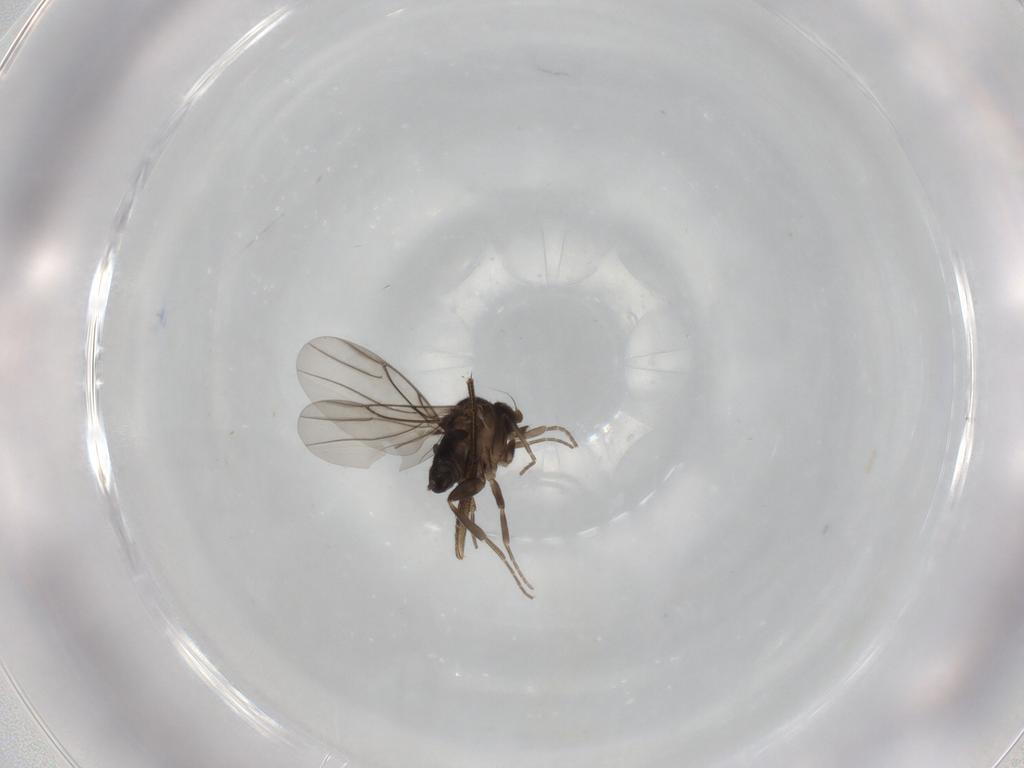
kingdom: Animalia
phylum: Arthropoda
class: Insecta
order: Diptera
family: Phoridae
